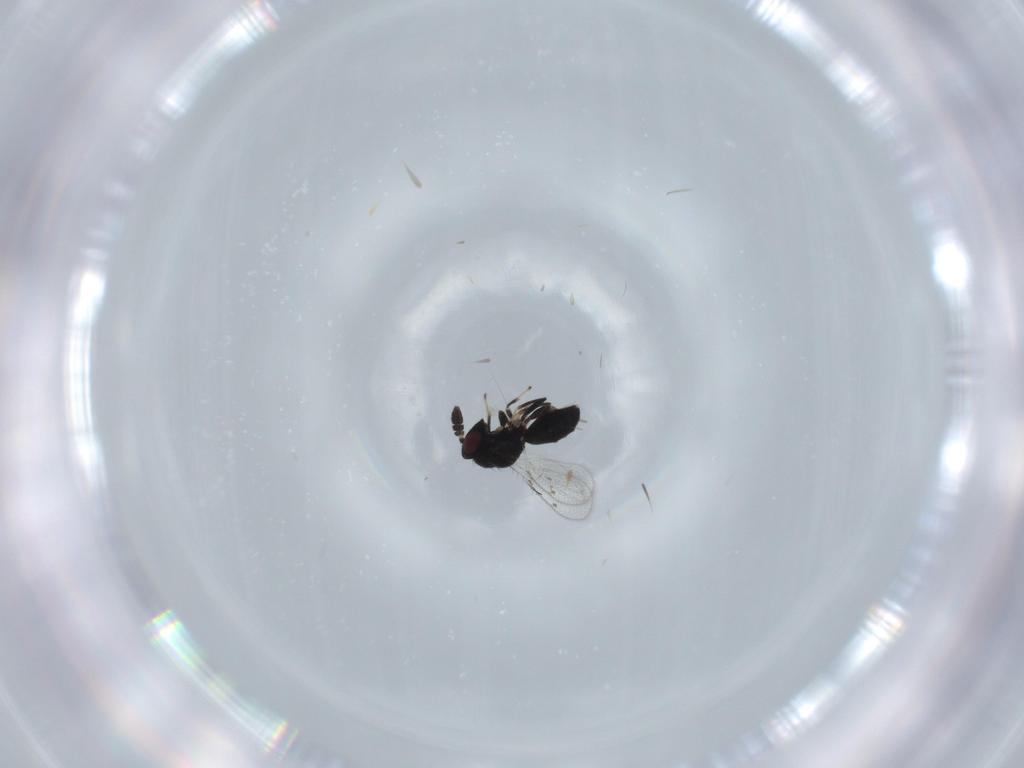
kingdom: Animalia
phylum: Arthropoda
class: Insecta
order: Hymenoptera
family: Pirenidae
